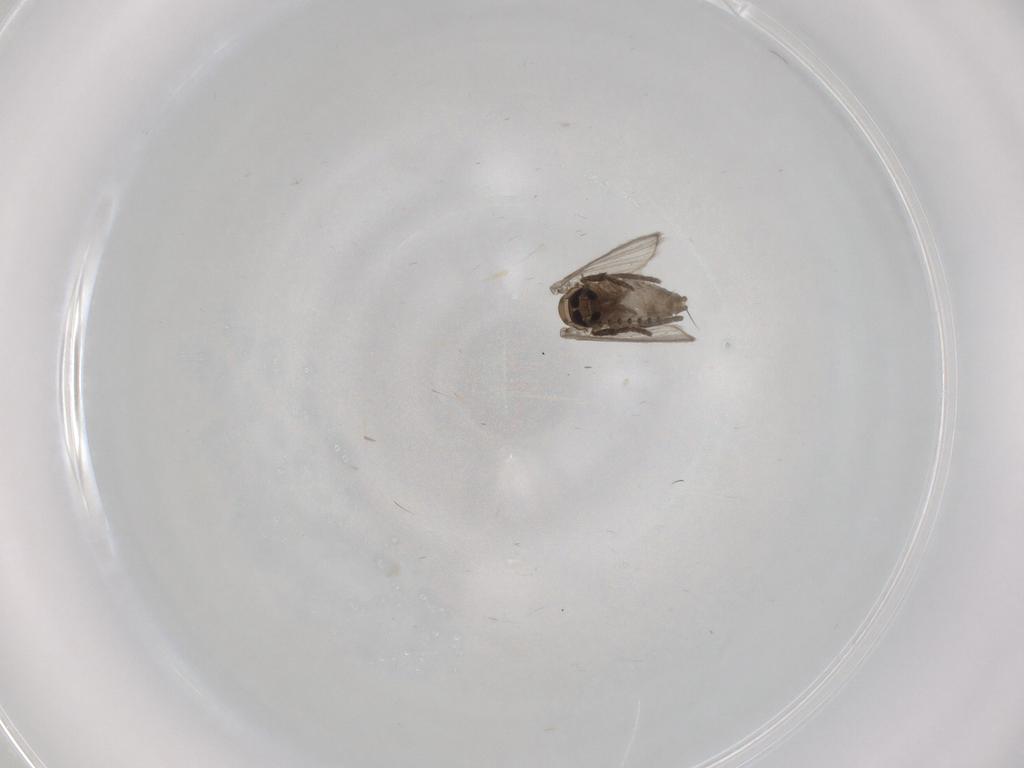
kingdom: Animalia
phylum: Arthropoda
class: Insecta
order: Diptera
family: Psychodidae
